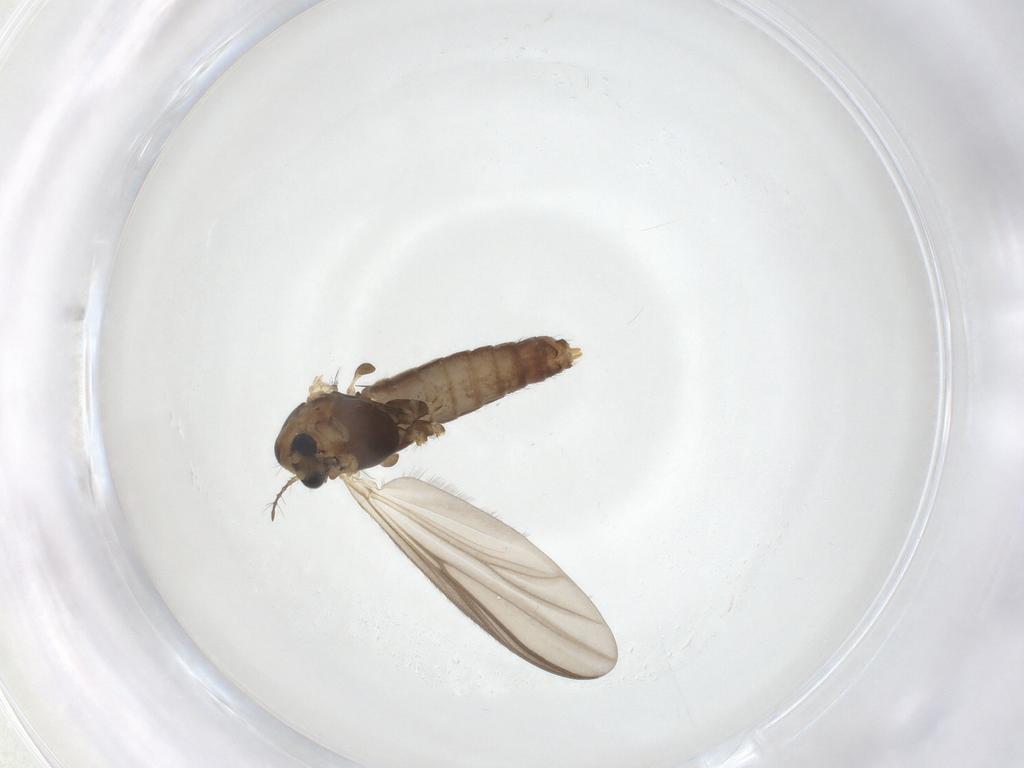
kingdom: Animalia
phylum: Arthropoda
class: Insecta
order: Diptera
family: Chironomidae
